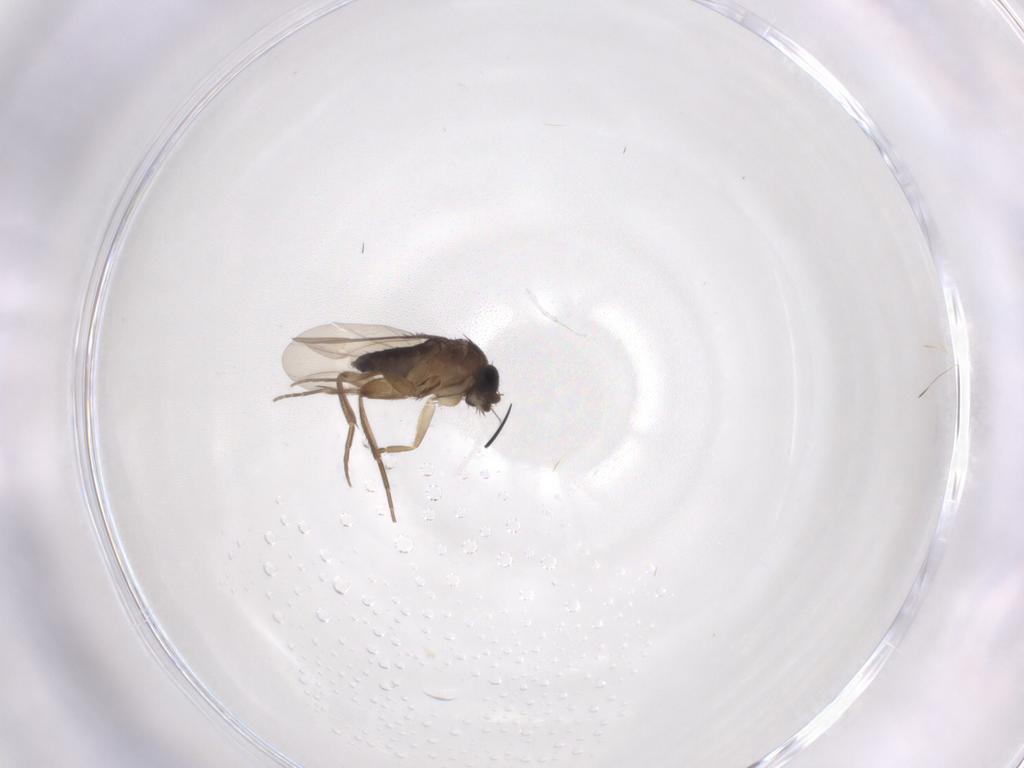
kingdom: Animalia
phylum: Arthropoda
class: Insecta
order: Diptera
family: Phoridae
